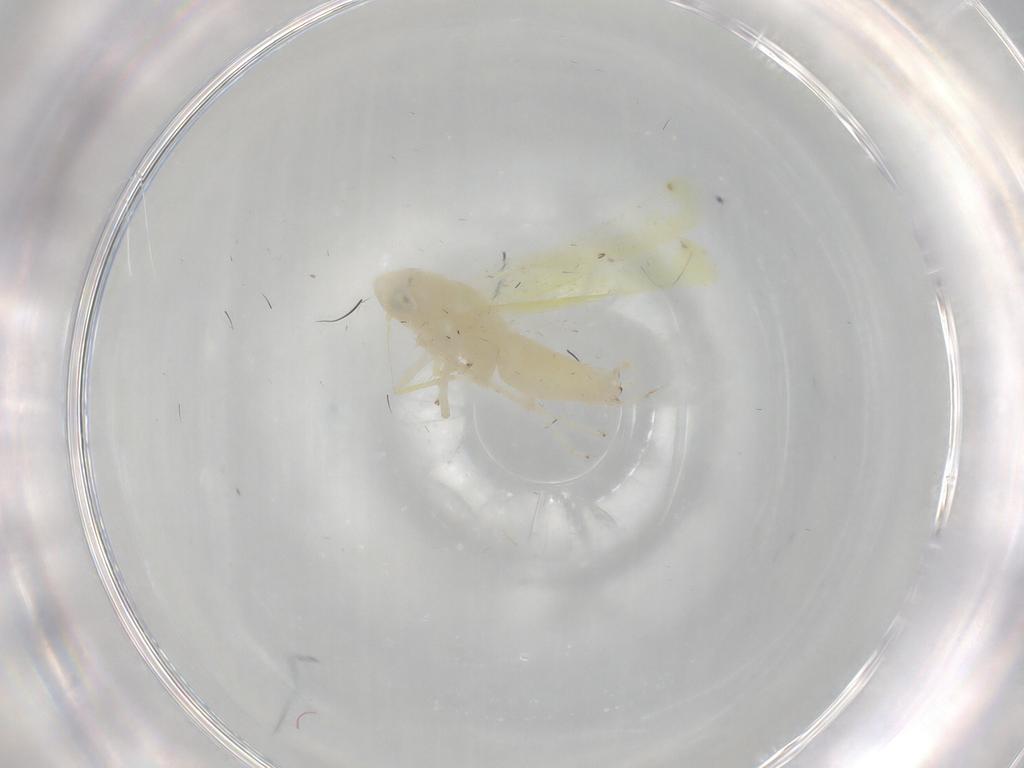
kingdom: Animalia
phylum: Arthropoda
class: Insecta
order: Hemiptera
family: Cicadellidae
